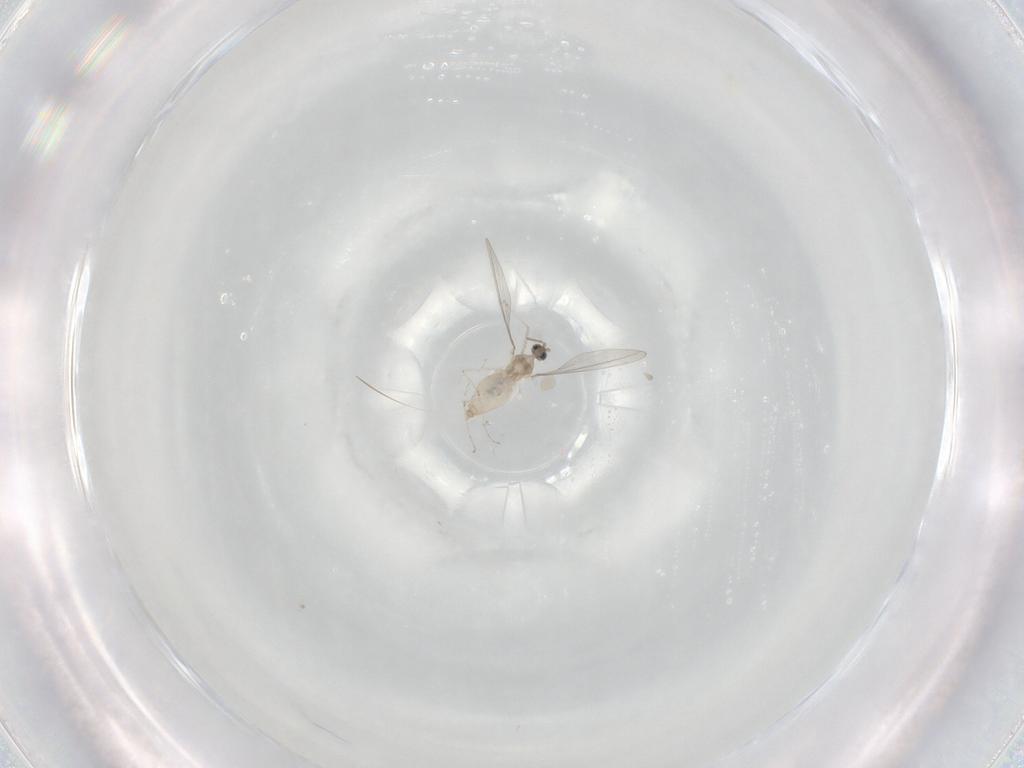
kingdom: Animalia
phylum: Arthropoda
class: Insecta
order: Diptera
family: Cecidomyiidae
